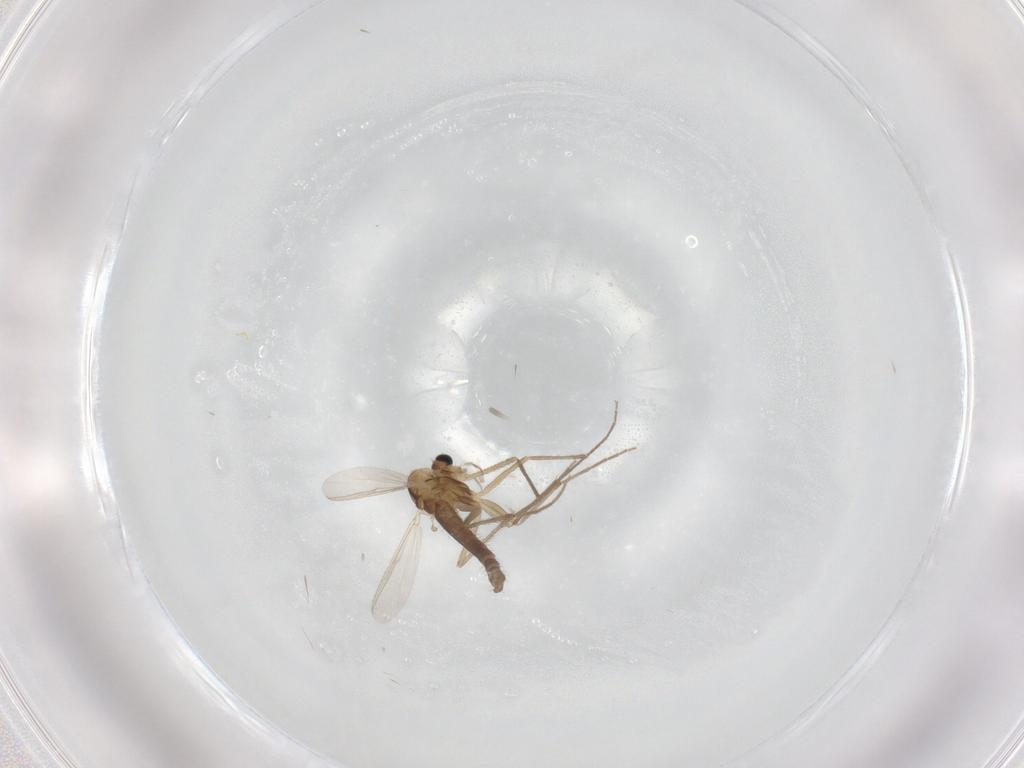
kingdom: Animalia
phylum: Arthropoda
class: Insecta
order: Diptera
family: Chironomidae
